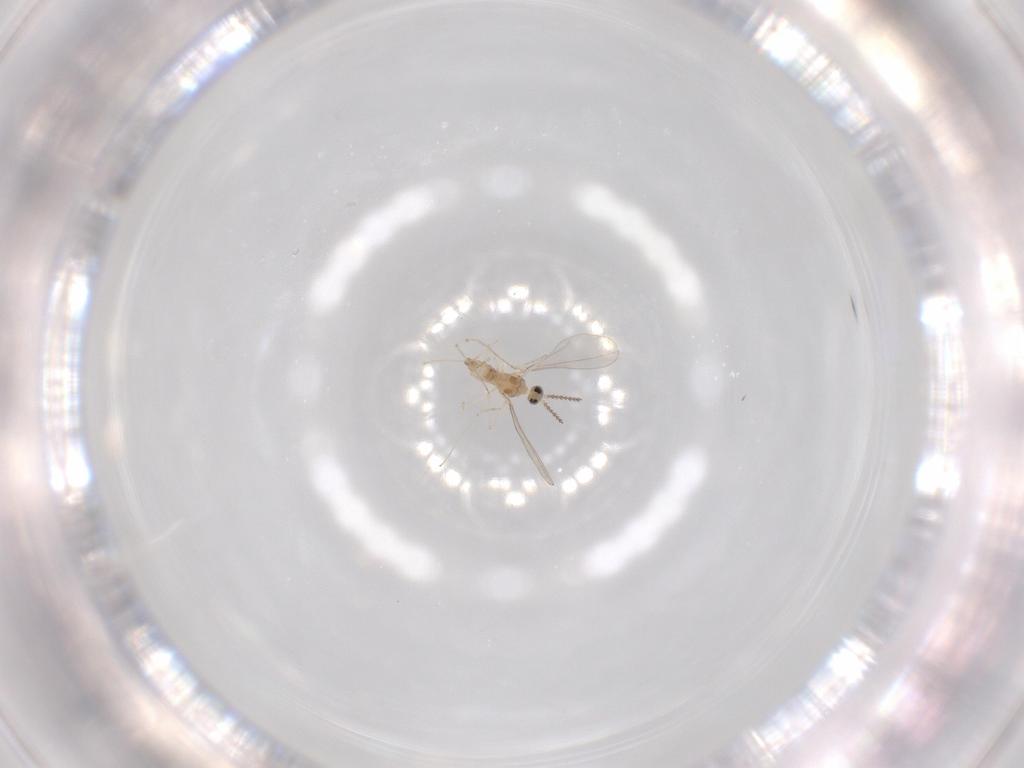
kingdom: Animalia
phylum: Arthropoda
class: Insecta
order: Diptera
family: Cecidomyiidae
